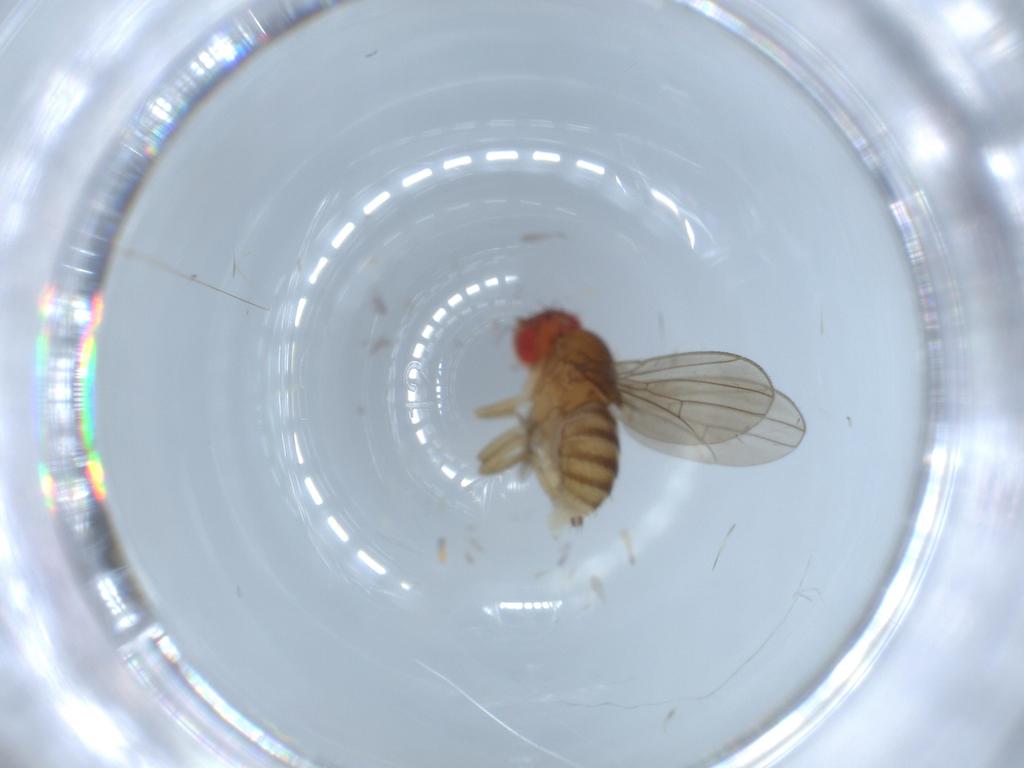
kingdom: Animalia
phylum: Arthropoda
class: Insecta
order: Diptera
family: Drosophilidae
